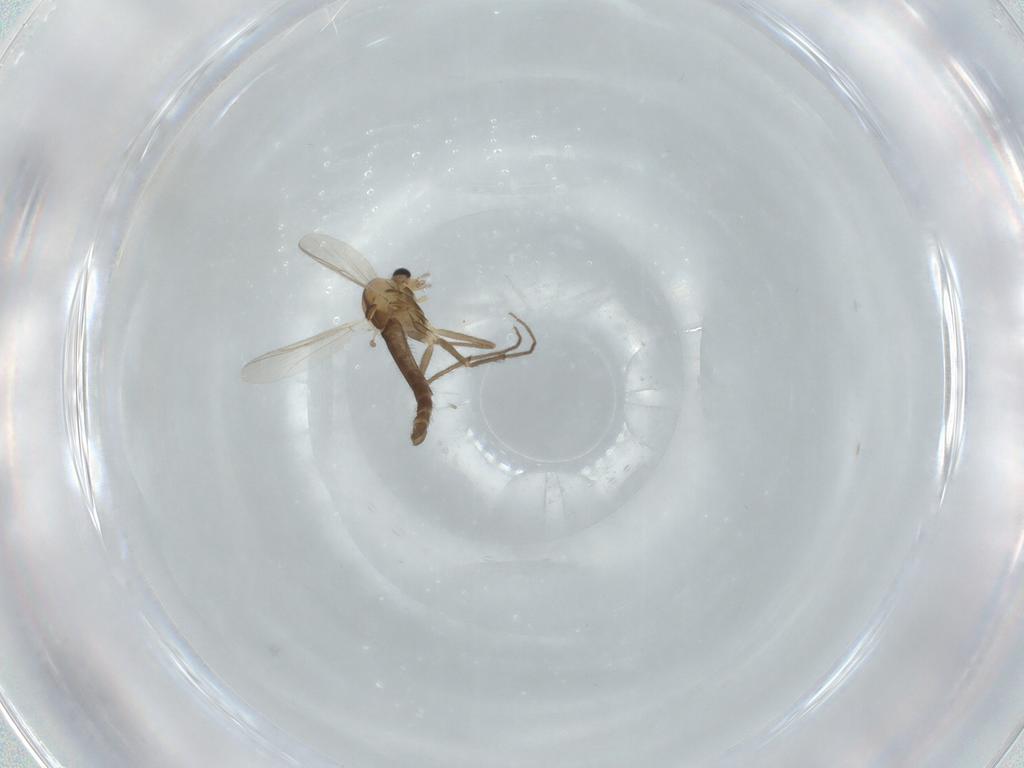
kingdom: Animalia
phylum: Arthropoda
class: Insecta
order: Diptera
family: Chironomidae
